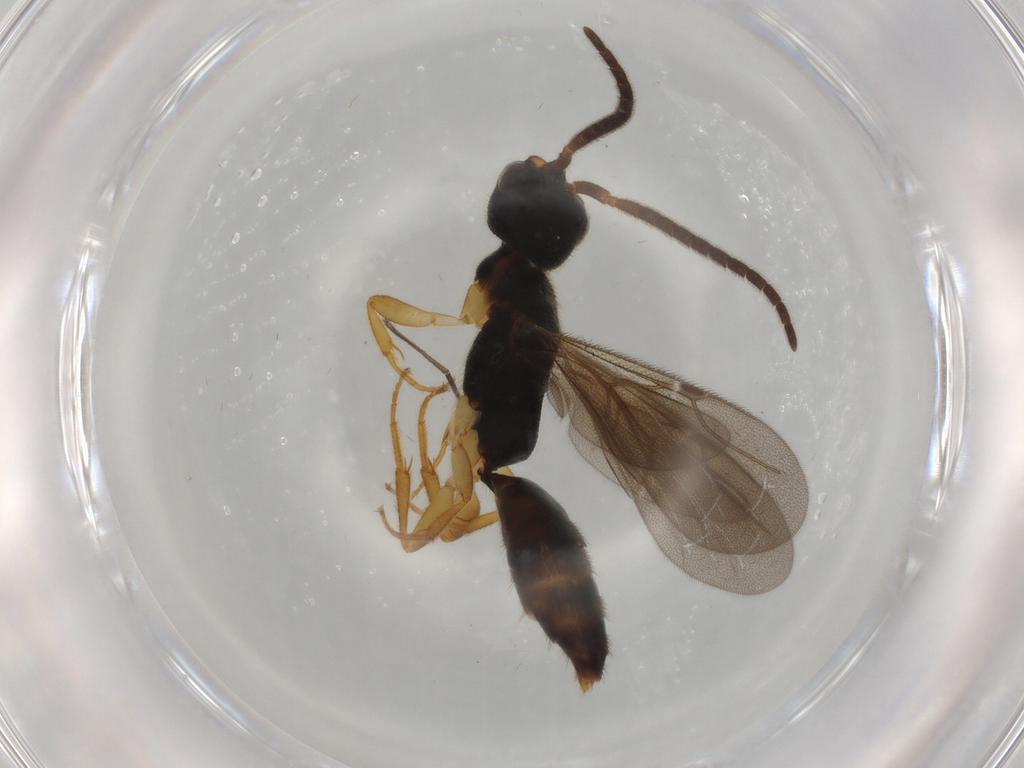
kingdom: Animalia
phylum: Arthropoda
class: Insecta
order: Hymenoptera
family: Bethylidae
